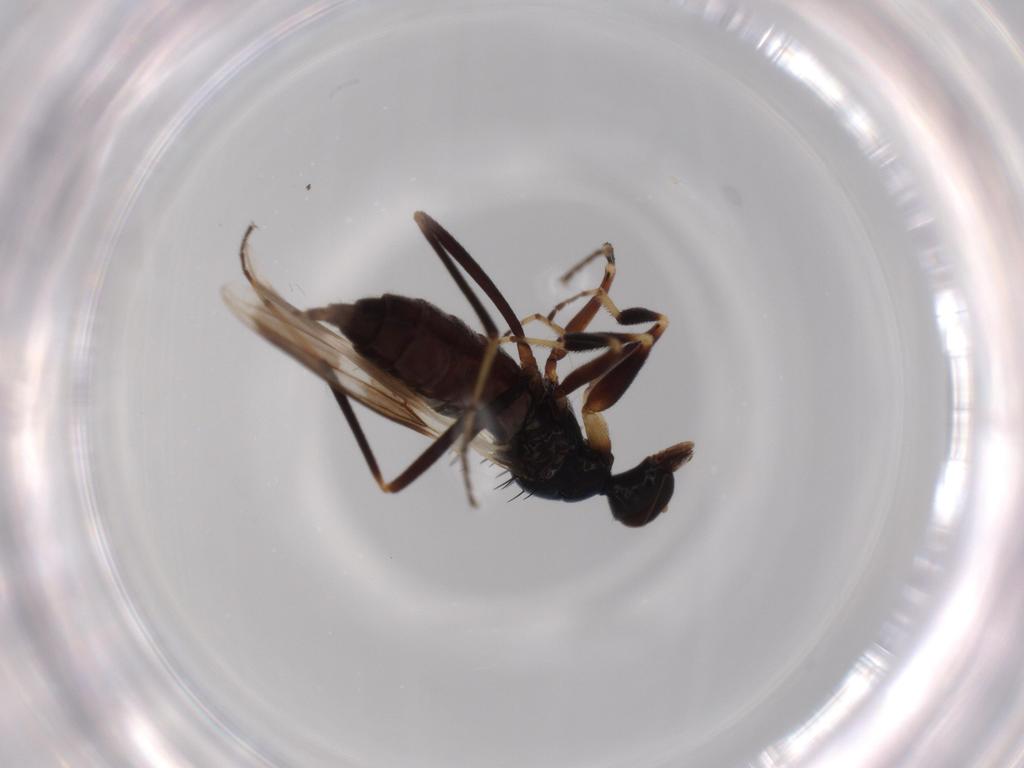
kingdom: Animalia
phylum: Arthropoda
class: Insecta
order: Diptera
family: Hybotidae
